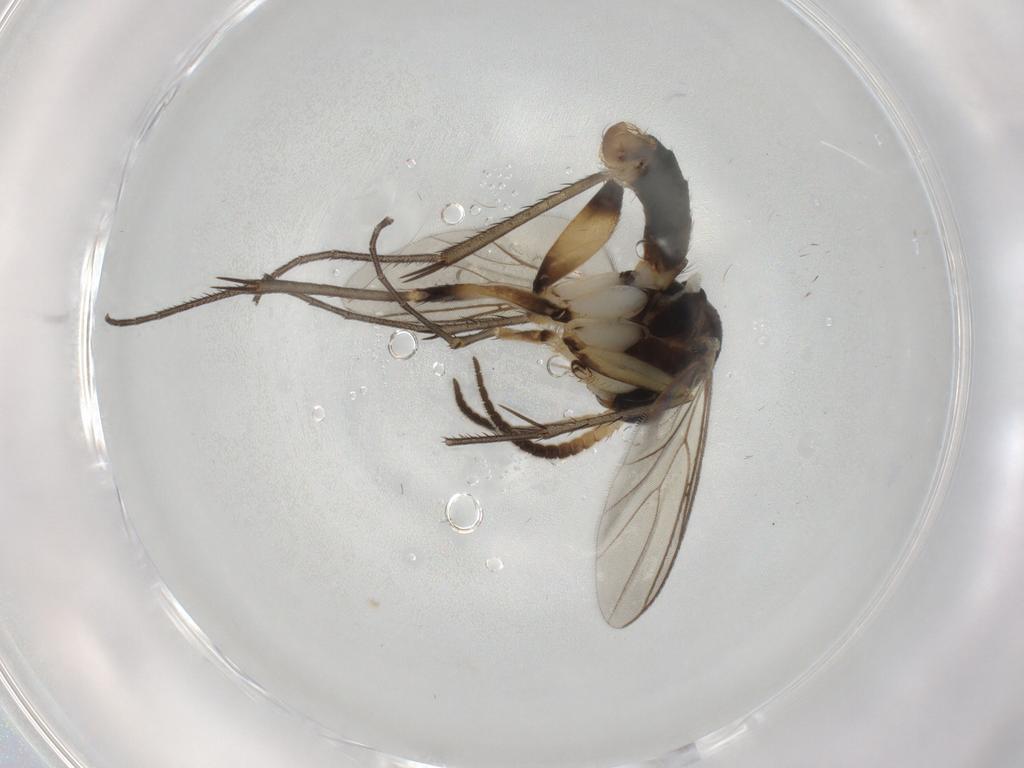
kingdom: Animalia
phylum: Arthropoda
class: Insecta
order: Diptera
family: Mycetophilidae
